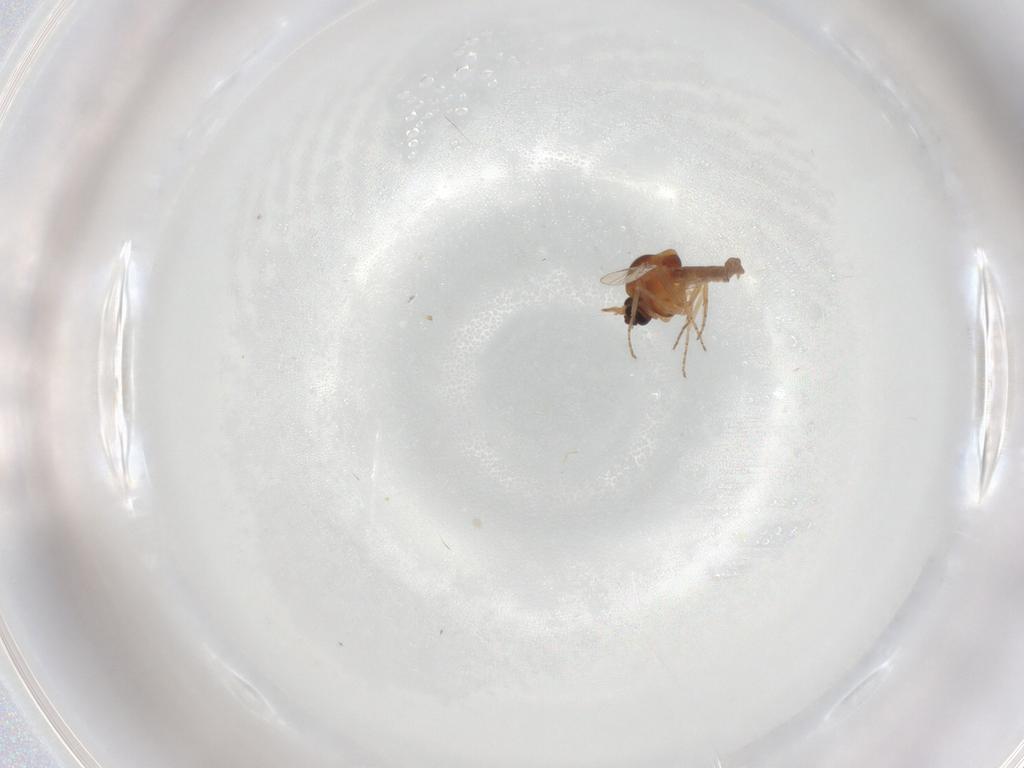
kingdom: Animalia
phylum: Arthropoda
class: Insecta
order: Diptera
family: Ceratopogonidae
